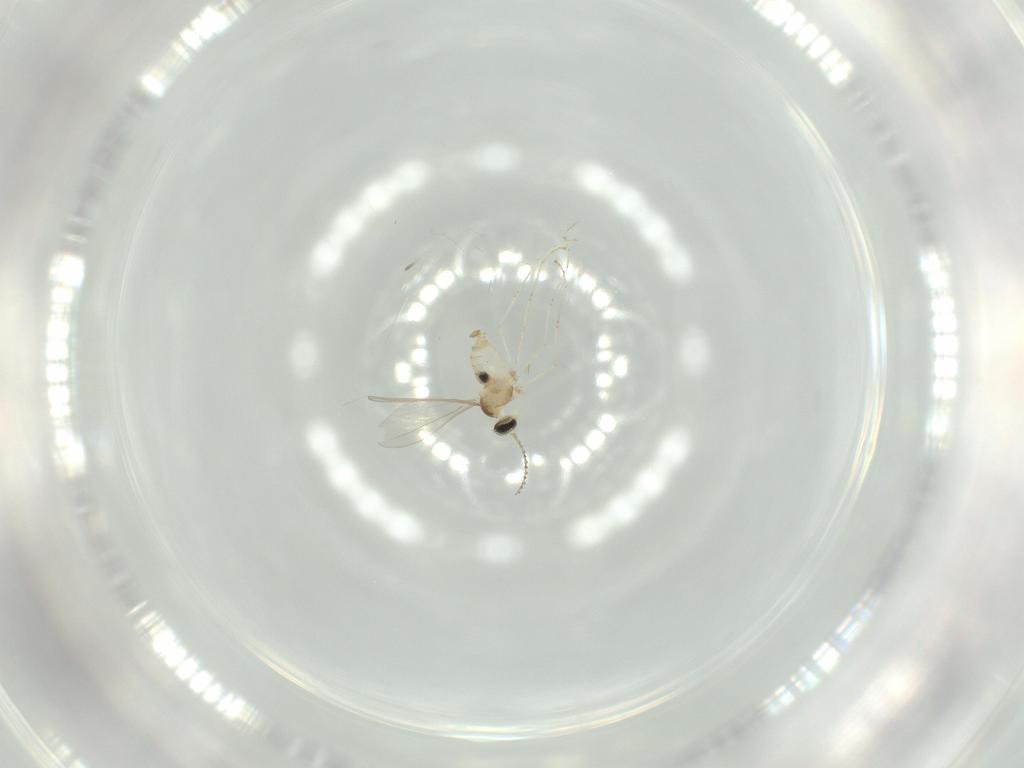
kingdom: Animalia
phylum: Arthropoda
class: Insecta
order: Diptera
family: Cecidomyiidae
